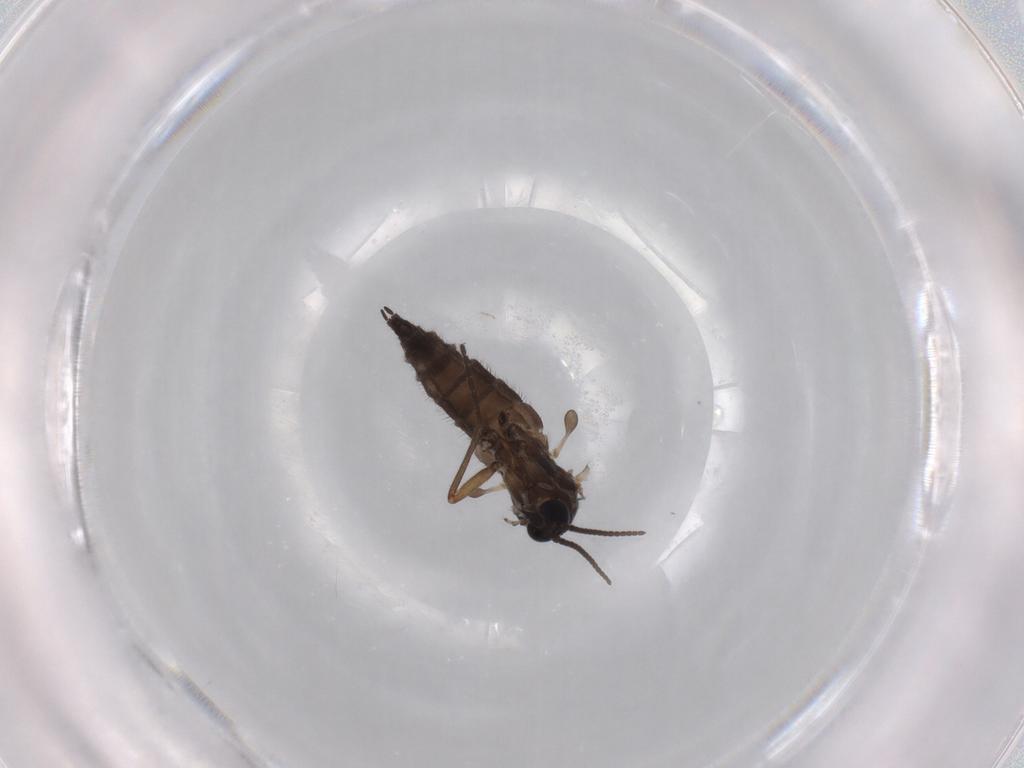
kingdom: Animalia
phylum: Arthropoda
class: Insecta
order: Diptera
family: Sciaridae
